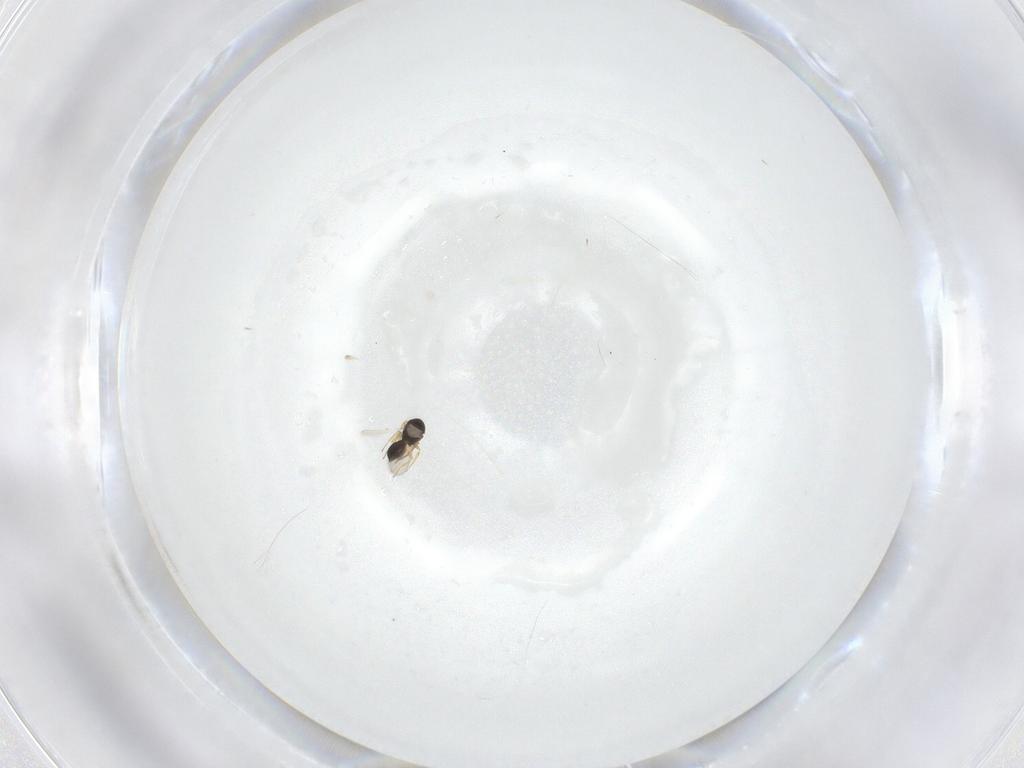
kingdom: Animalia
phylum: Arthropoda
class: Insecta
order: Hymenoptera
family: Scelionidae
